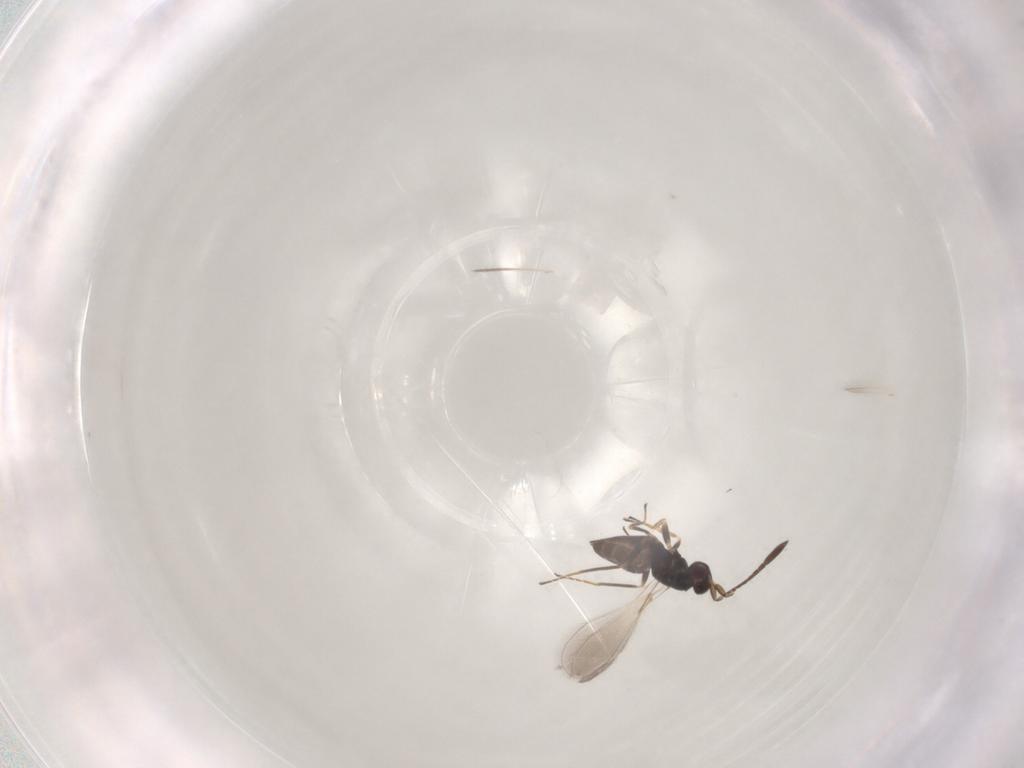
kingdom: Animalia
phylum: Arthropoda
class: Insecta
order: Hymenoptera
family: Mymaridae
